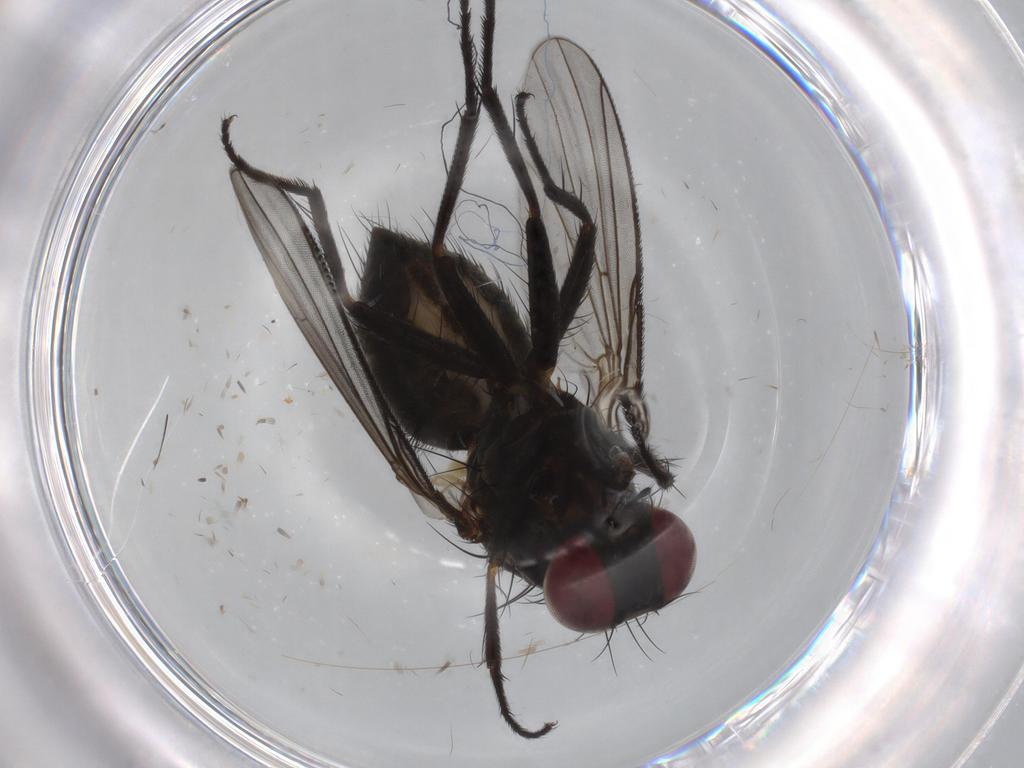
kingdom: Animalia
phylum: Arthropoda
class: Insecta
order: Diptera
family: Muscidae
